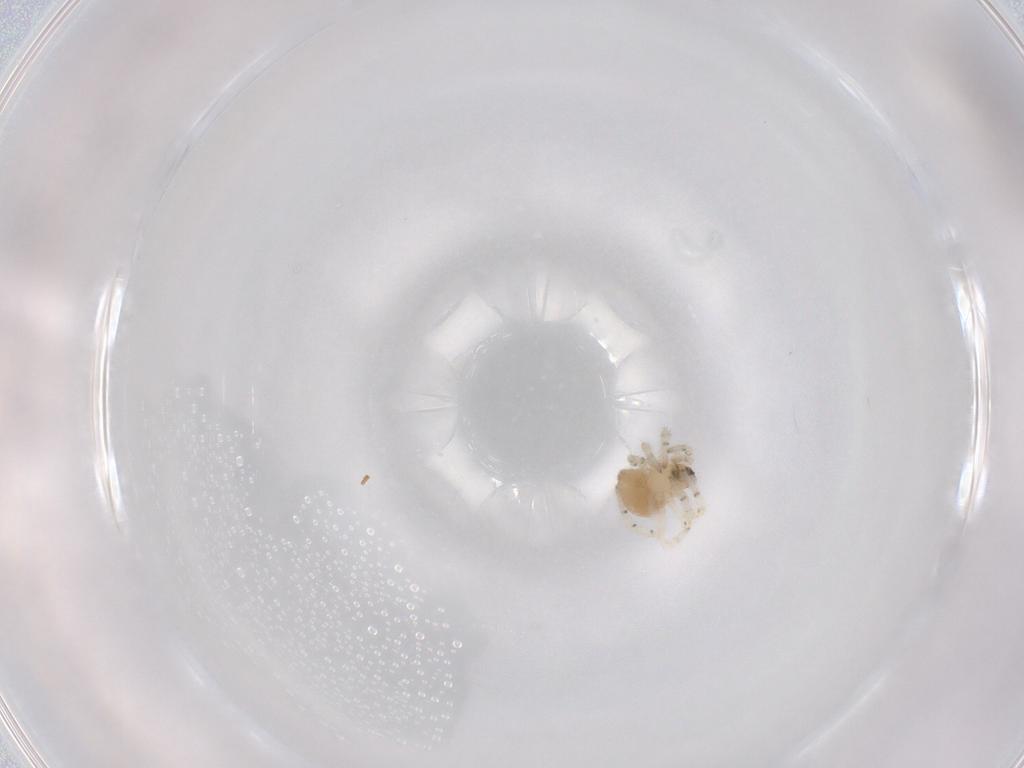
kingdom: Animalia
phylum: Arthropoda
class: Arachnida
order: Araneae
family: Theridiidae
